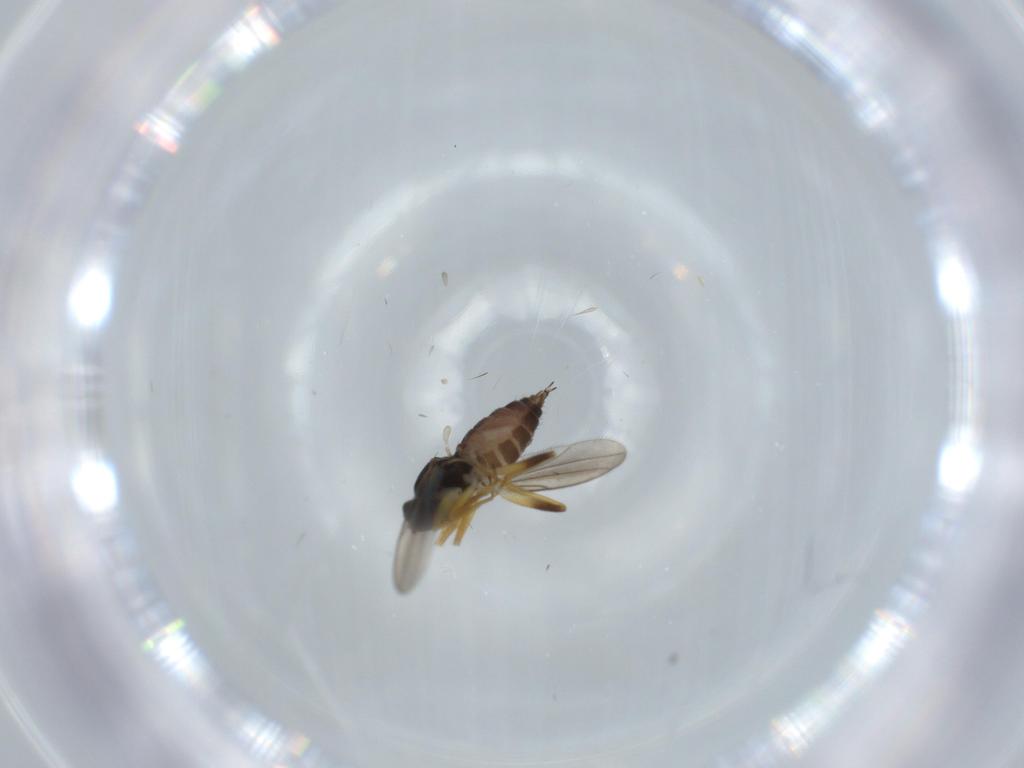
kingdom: Animalia
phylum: Arthropoda
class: Insecta
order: Diptera
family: Hybotidae
